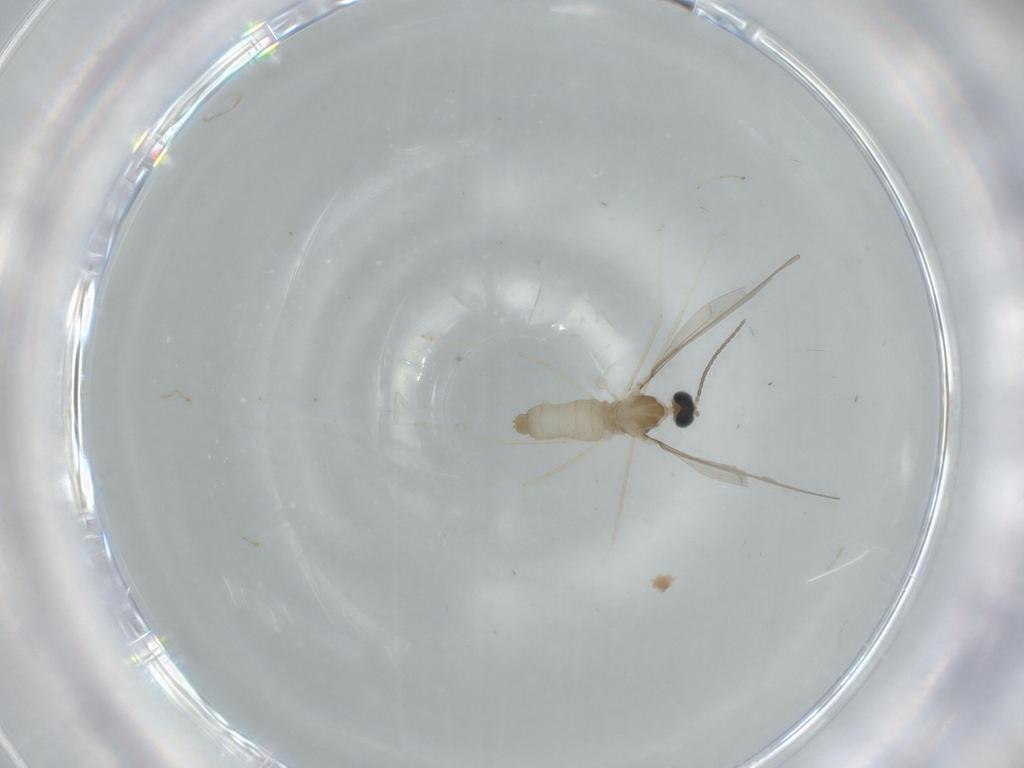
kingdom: Animalia
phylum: Arthropoda
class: Insecta
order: Diptera
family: Cecidomyiidae
